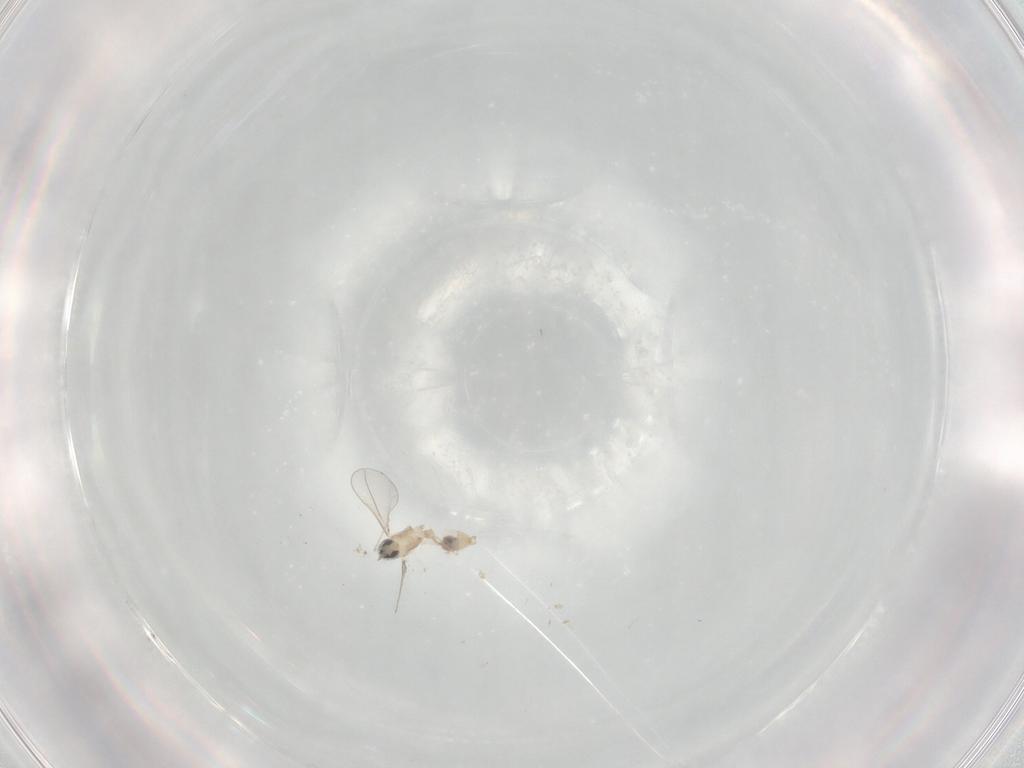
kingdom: Animalia
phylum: Arthropoda
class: Insecta
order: Diptera
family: Cecidomyiidae
